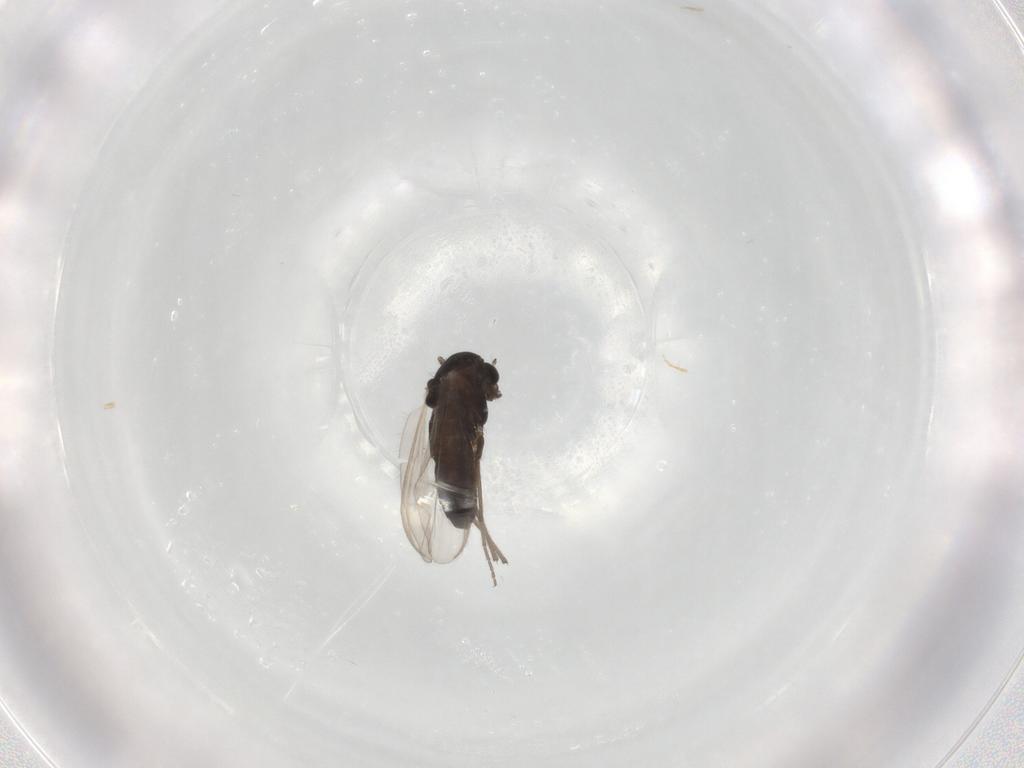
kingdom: Animalia
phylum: Arthropoda
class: Insecta
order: Diptera
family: Chironomidae
